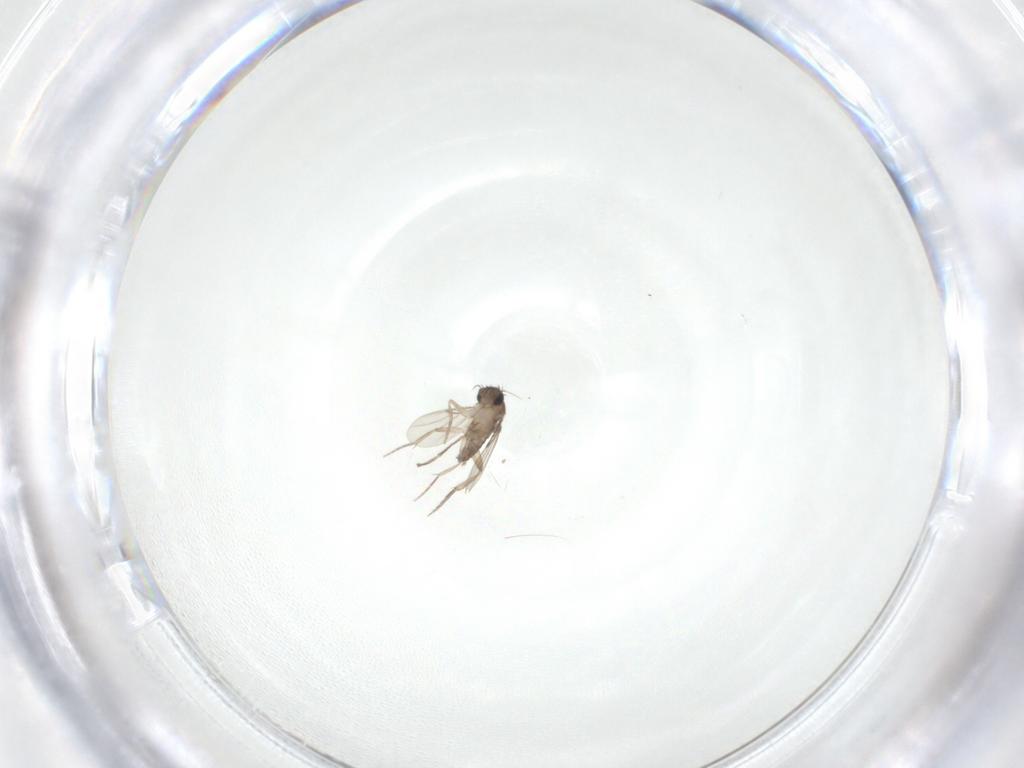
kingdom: Animalia
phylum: Arthropoda
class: Insecta
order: Diptera
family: Phoridae
